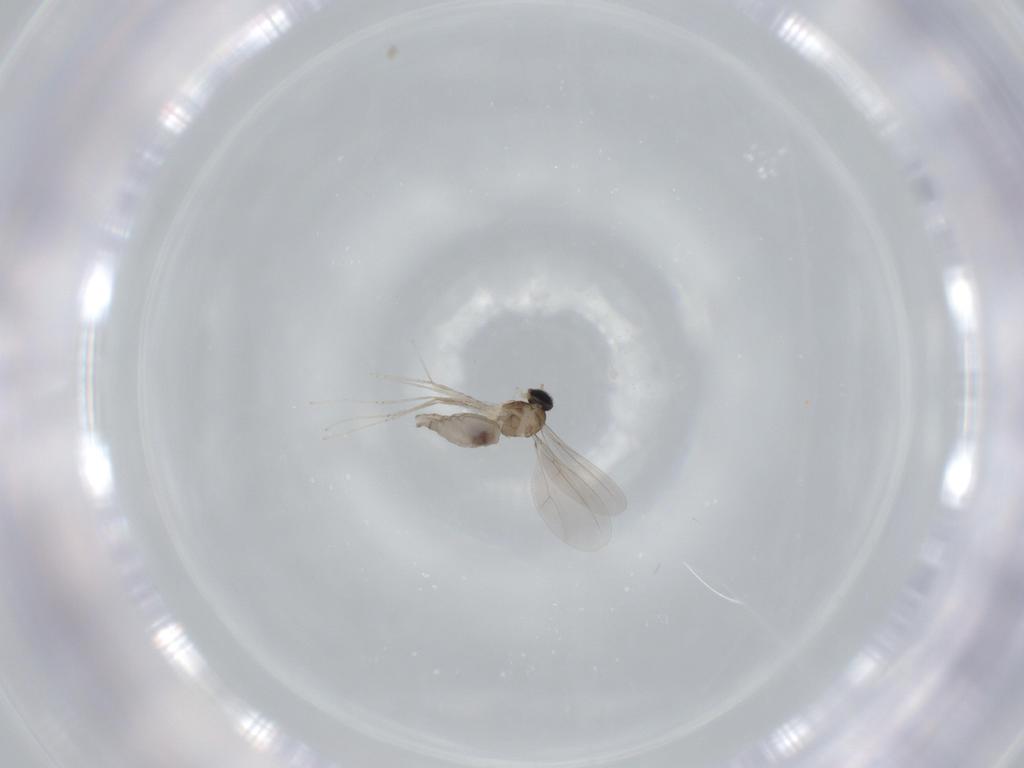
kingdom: Animalia
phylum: Arthropoda
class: Insecta
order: Diptera
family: Cecidomyiidae
